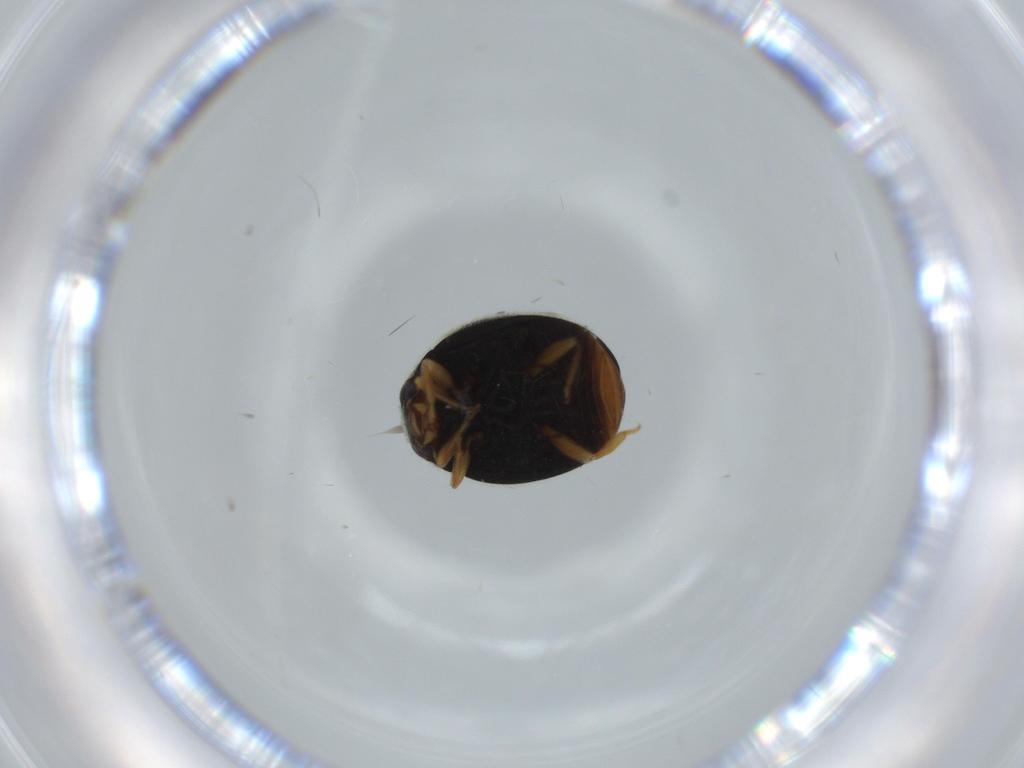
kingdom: Animalia
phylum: Arthropoda
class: Insecta
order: Coleoptera
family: Coccinellidae
